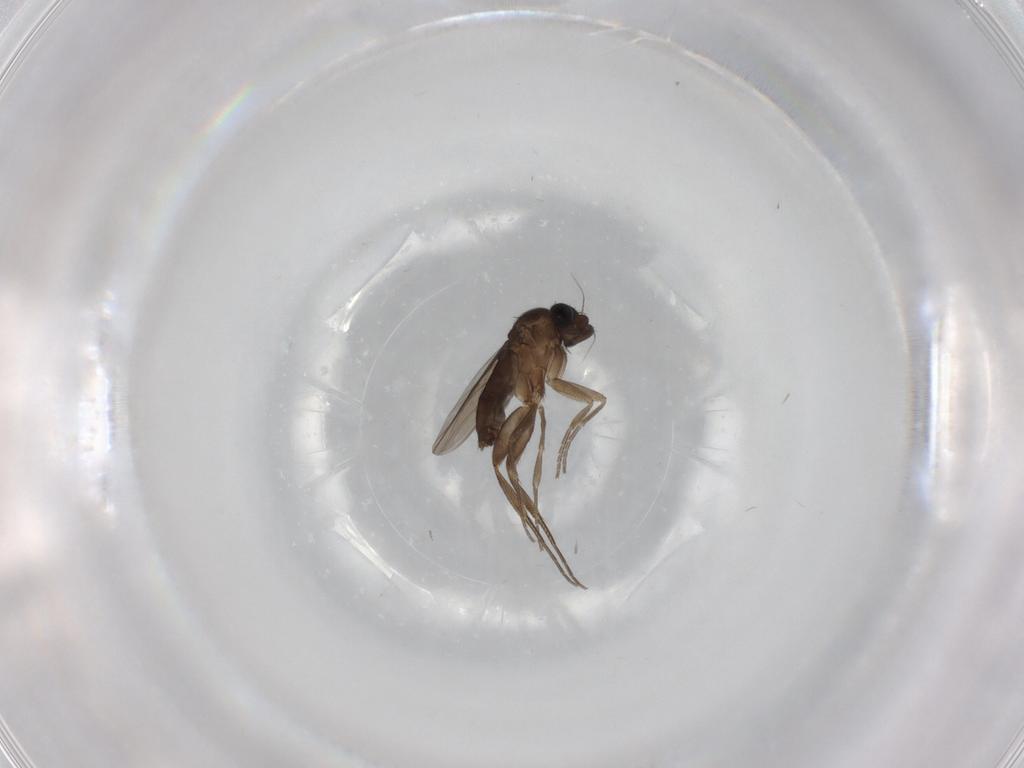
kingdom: Animalia
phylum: Arthropoda
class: Insecta
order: Diptera
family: Phoridae
